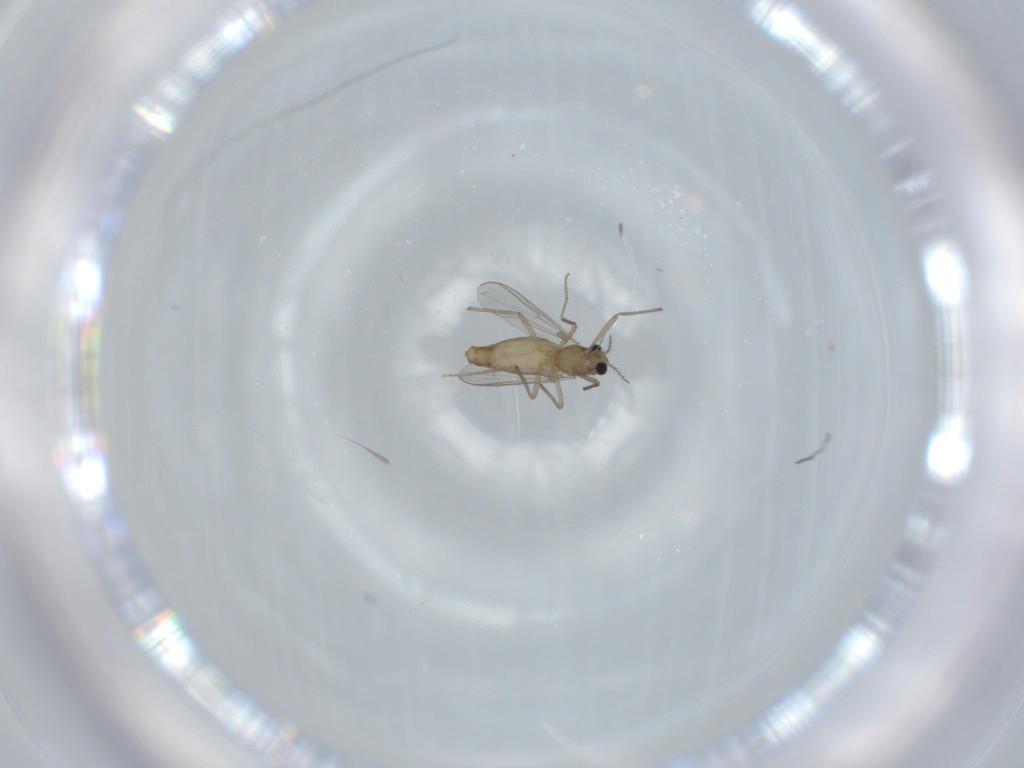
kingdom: Animalia
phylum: Arthropoda
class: Insecta
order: Diptera
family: Chironomidae
